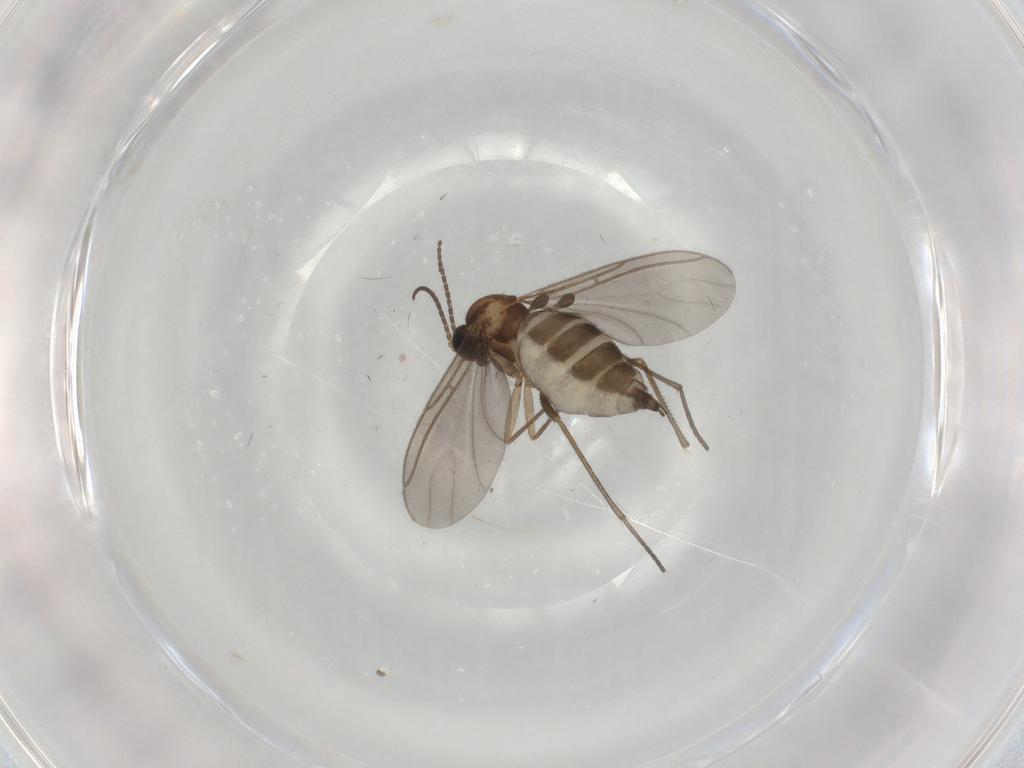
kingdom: Animalia
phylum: Arthropoda
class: Insecta
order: Diptera
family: Sciaridae
